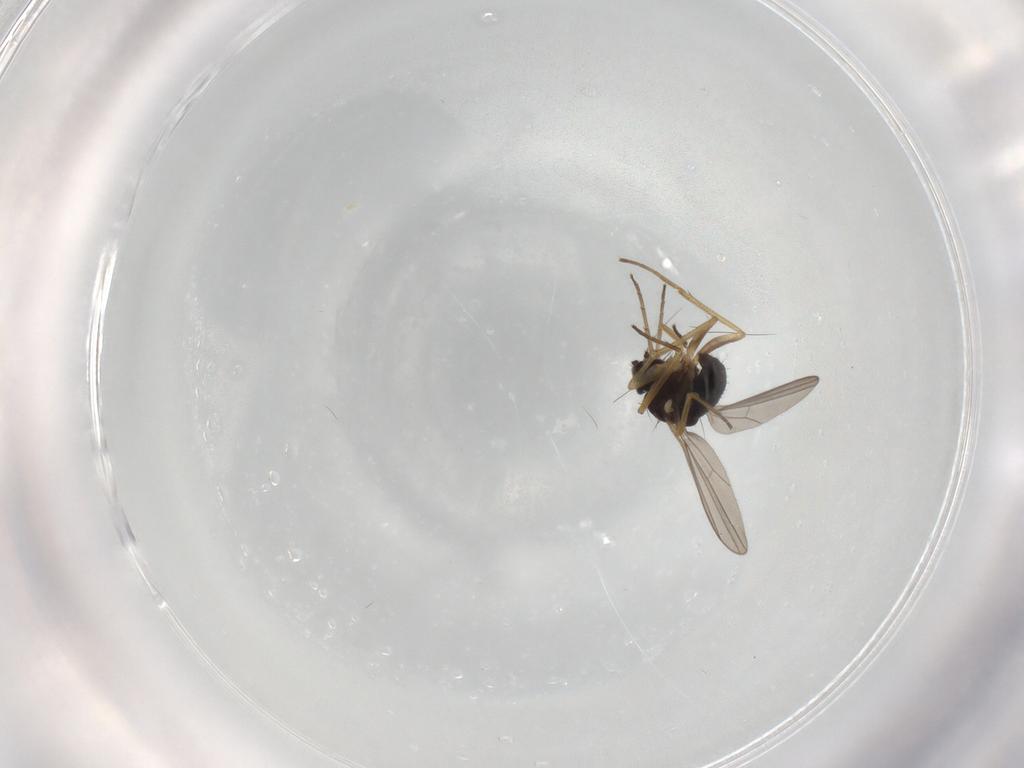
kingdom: Animalia
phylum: Arthropoda
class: Insecta
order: Diptera
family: Dolichopodidae
